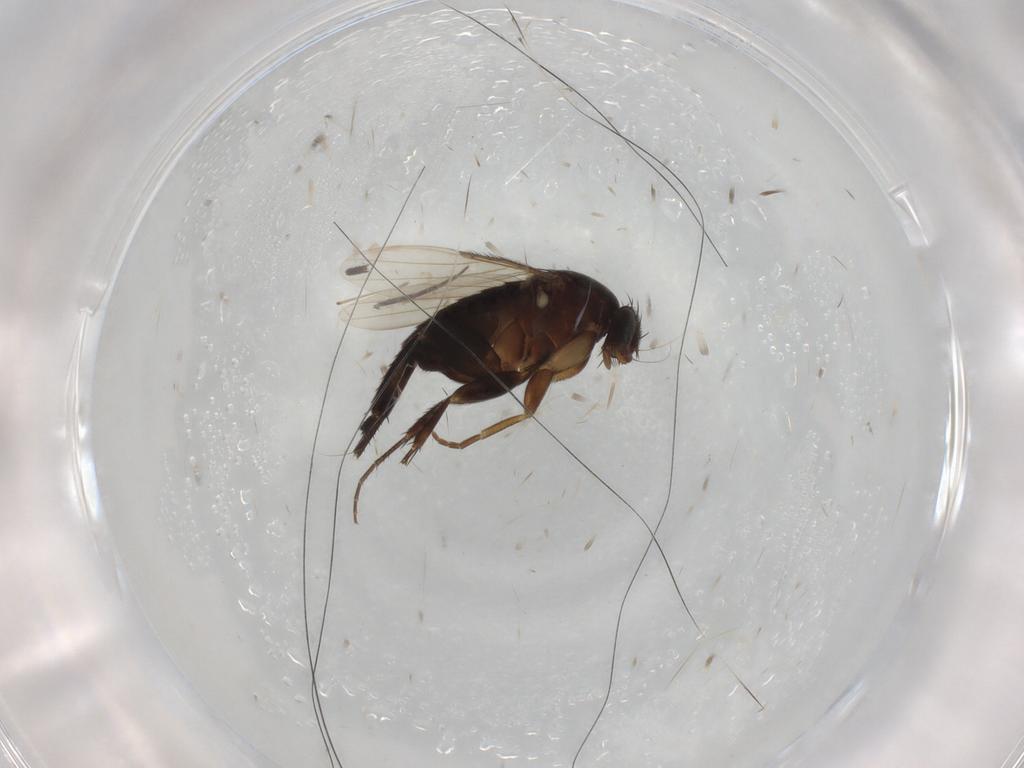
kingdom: Animalia
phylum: Arthropoda
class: Insecta
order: Diptera
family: Phoridae
